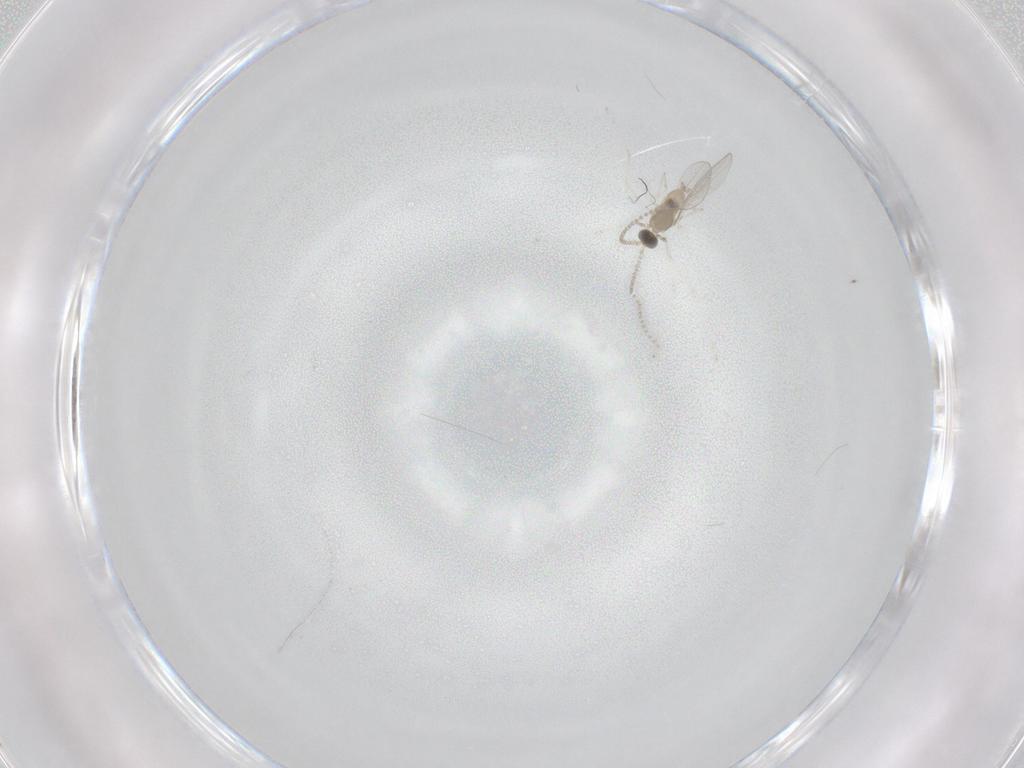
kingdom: Animalia
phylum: Arthropoda
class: Insecta
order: Diptera
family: Cecidomyiidae
